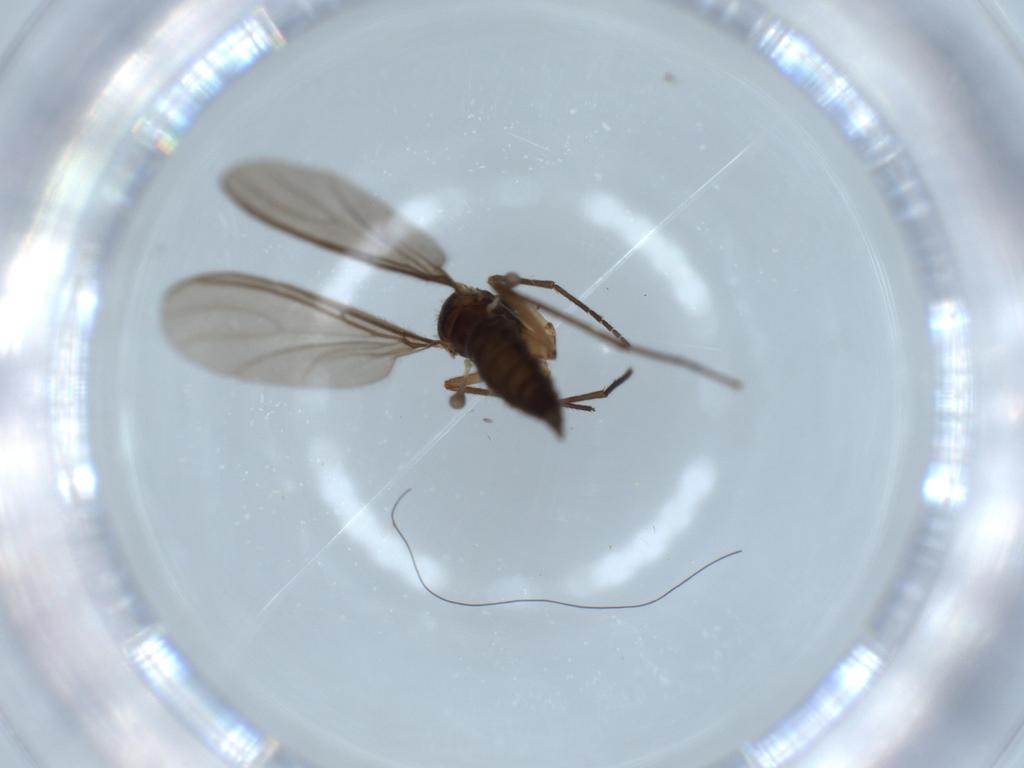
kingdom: Animalia
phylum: Arthropoda
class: Insecta
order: Diptera
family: Sciaridae
